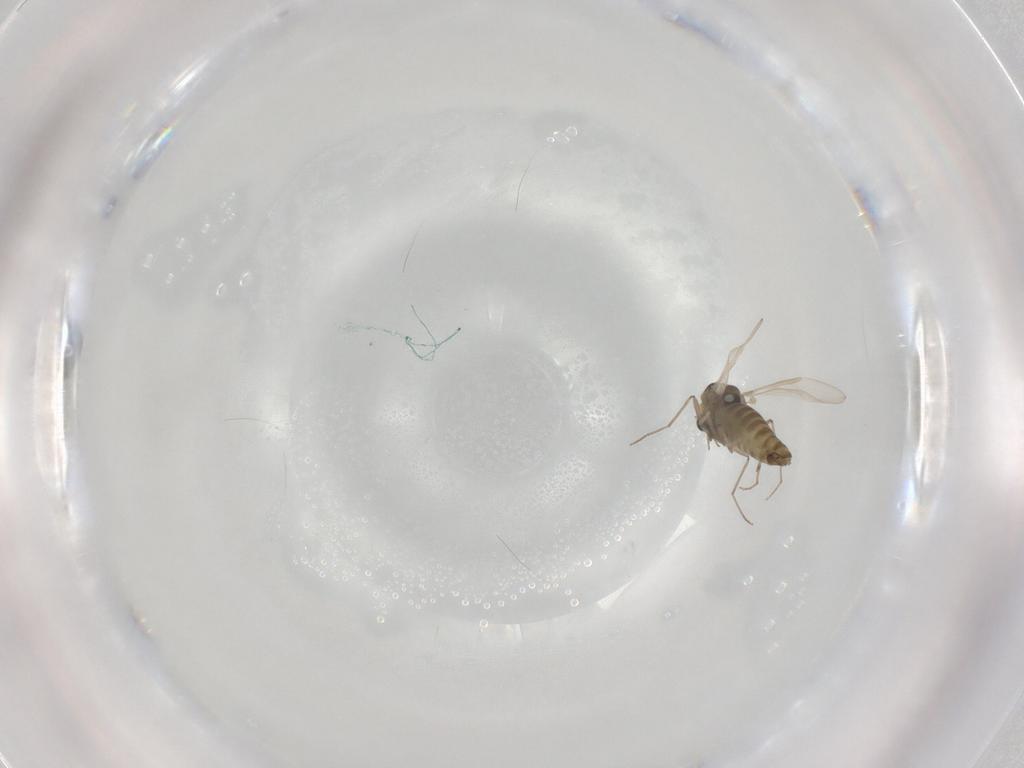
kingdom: Animalia
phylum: Arthropoda
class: Insecta
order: Diptera
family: Chironomidae
